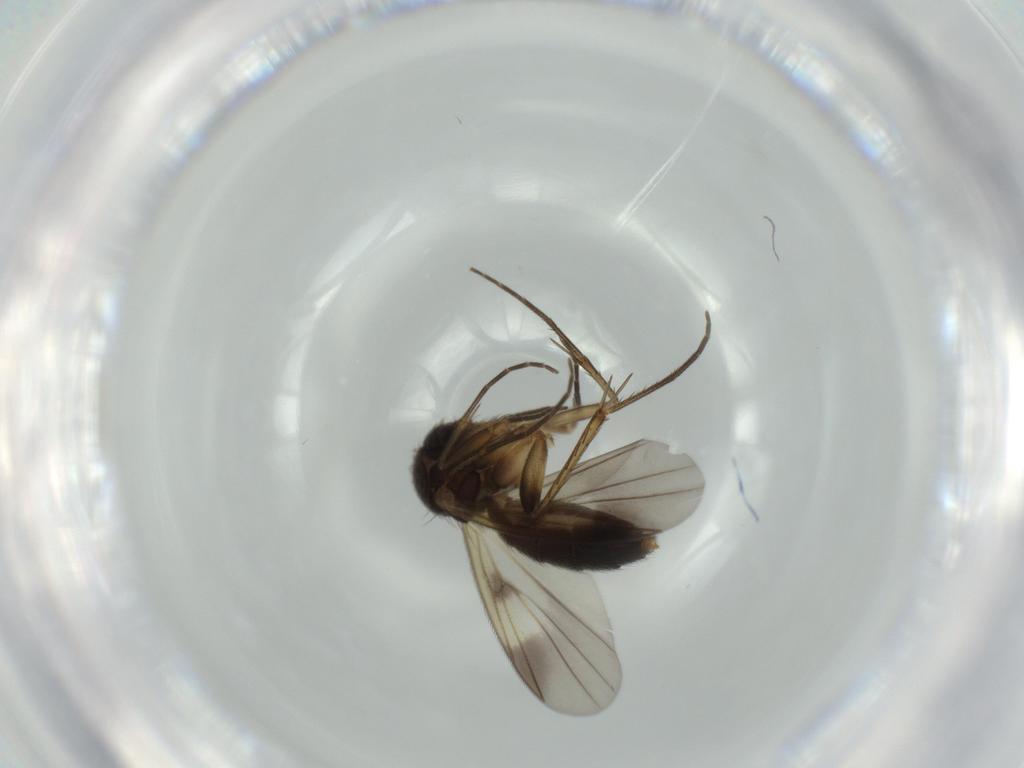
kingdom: Animalia
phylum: Arthropoda
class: Insecta
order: Diptera
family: Mycetophilidae
